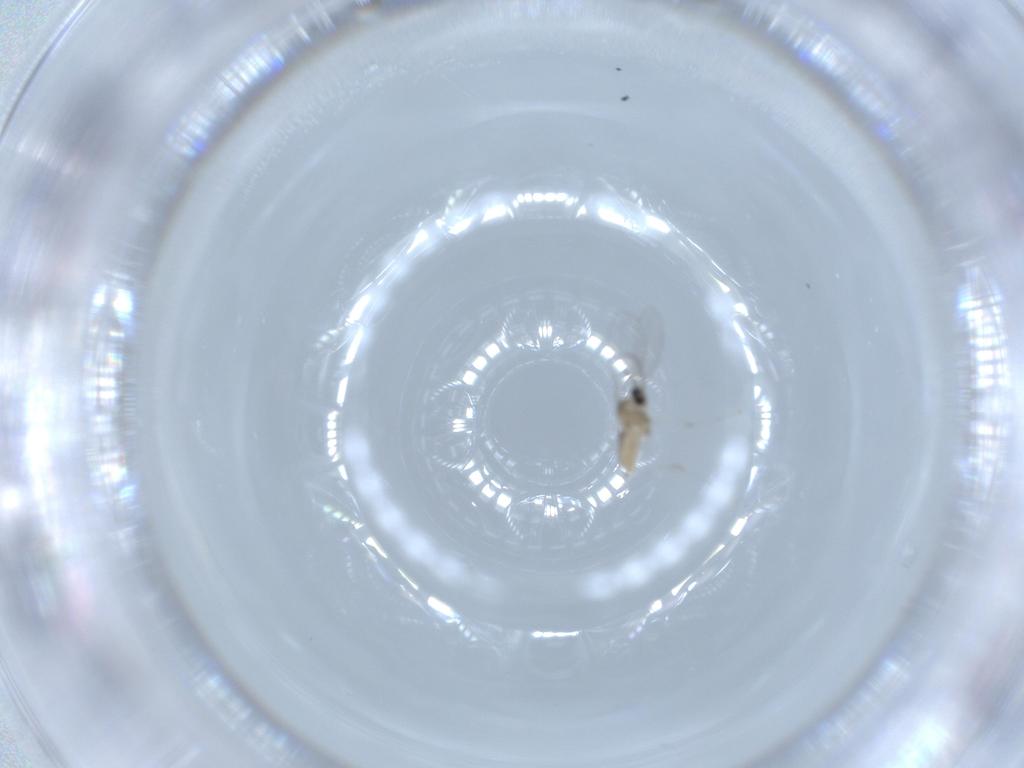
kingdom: Animalia
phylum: Arthropoda
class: Insecta
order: Diptera
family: Cecidomyiidae
